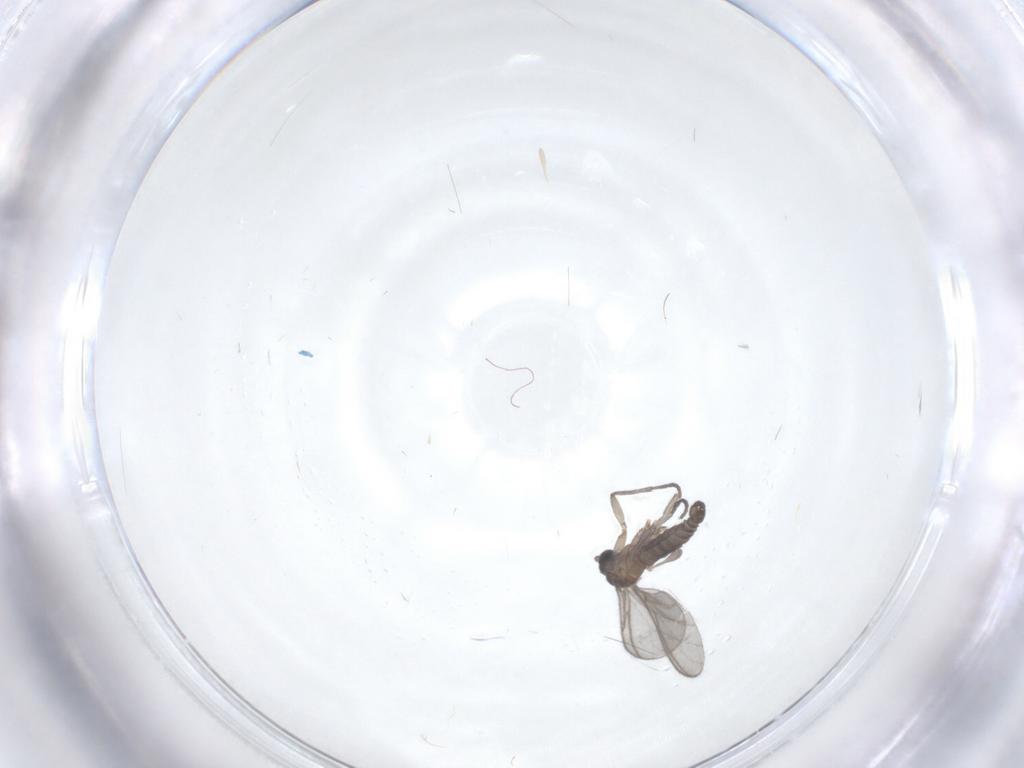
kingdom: Animalia
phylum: Arthropoda
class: Insecta
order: Diptera
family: Sciaridae
